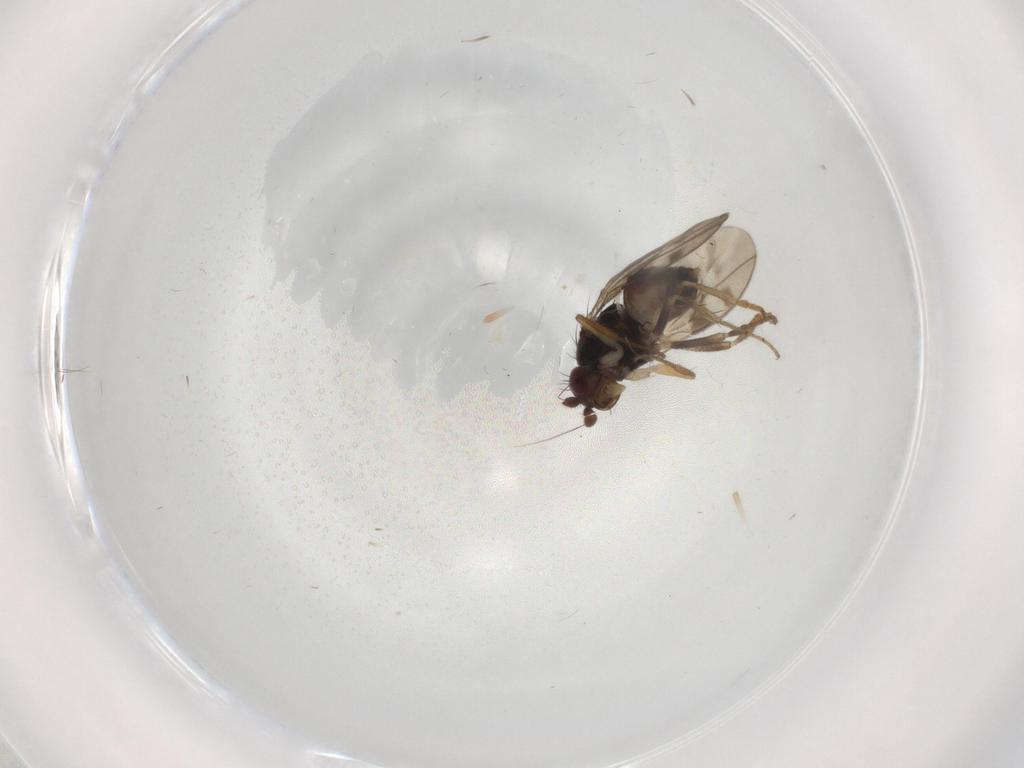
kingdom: Animalia
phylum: Arthropoda
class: Insecta
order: Diptera
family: Sphaeroceridae
